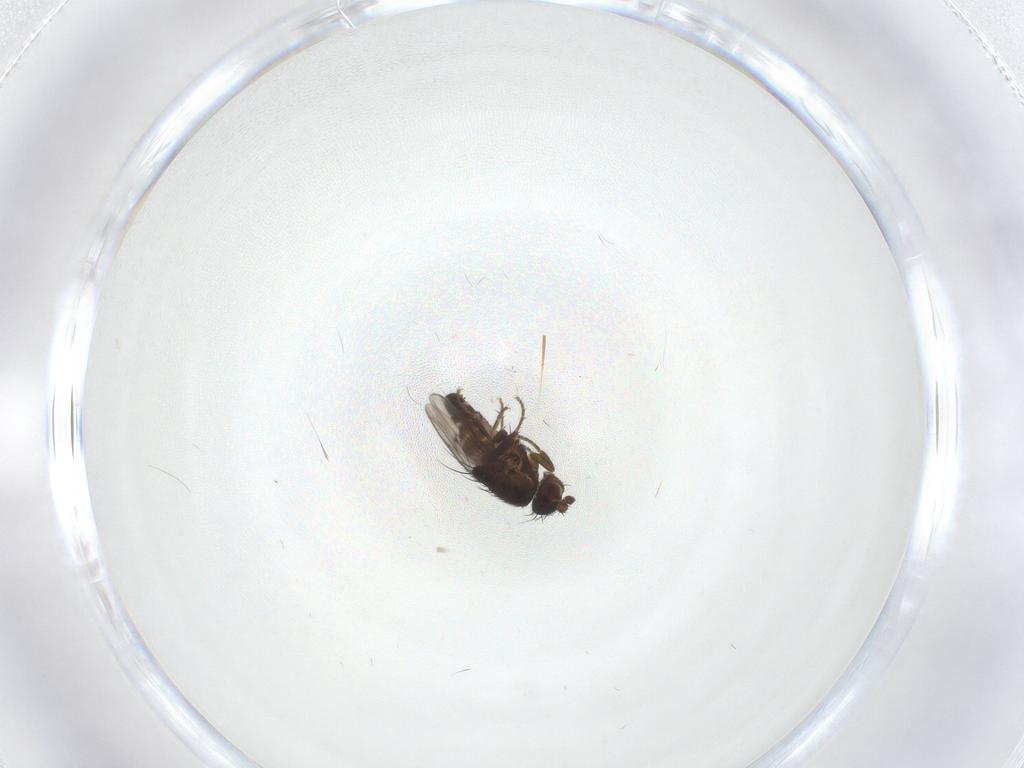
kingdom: Animalia
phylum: Arthropoda
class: Insecta
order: Diptera
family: Sphaeroceridae
